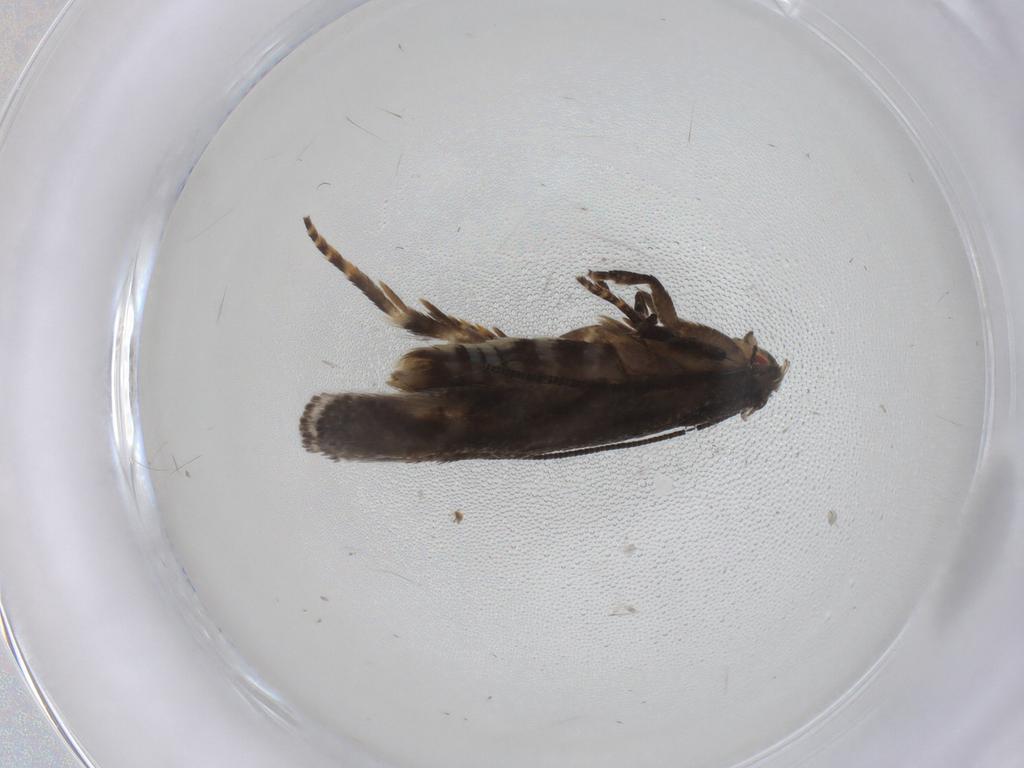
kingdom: Animalia
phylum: Arthropoda
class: Insecta
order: Lepidoptera
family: Momphidae
